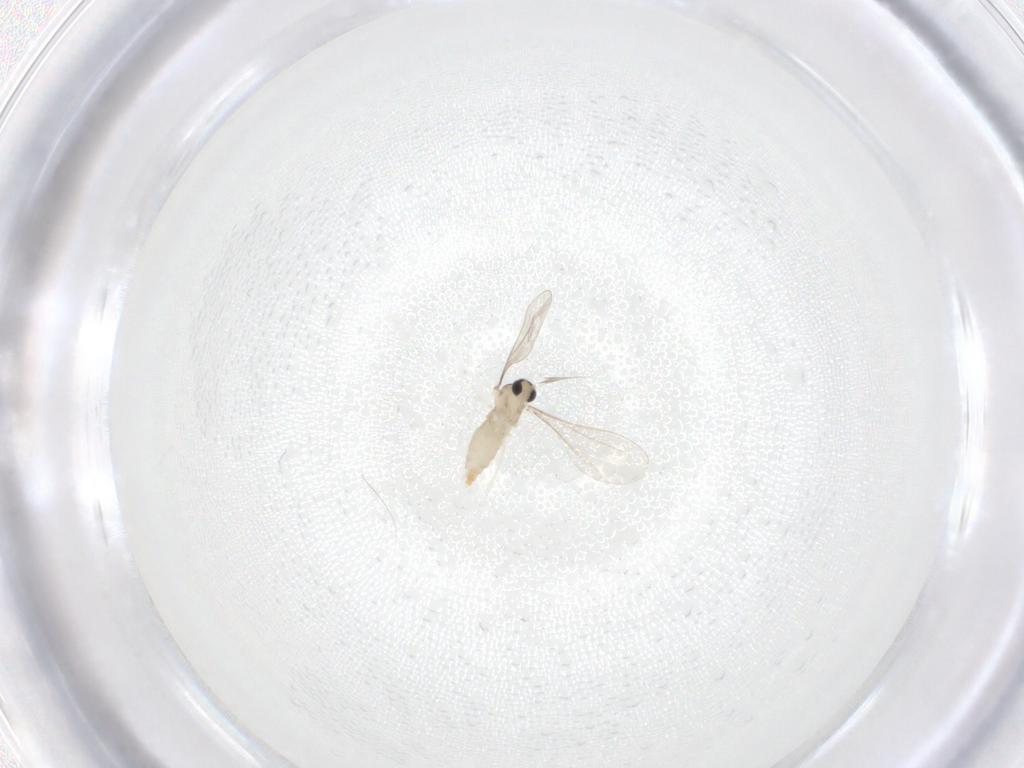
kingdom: Animalia
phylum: Arthropoda
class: Insecta
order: Diptera
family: Cecidomyiidae
